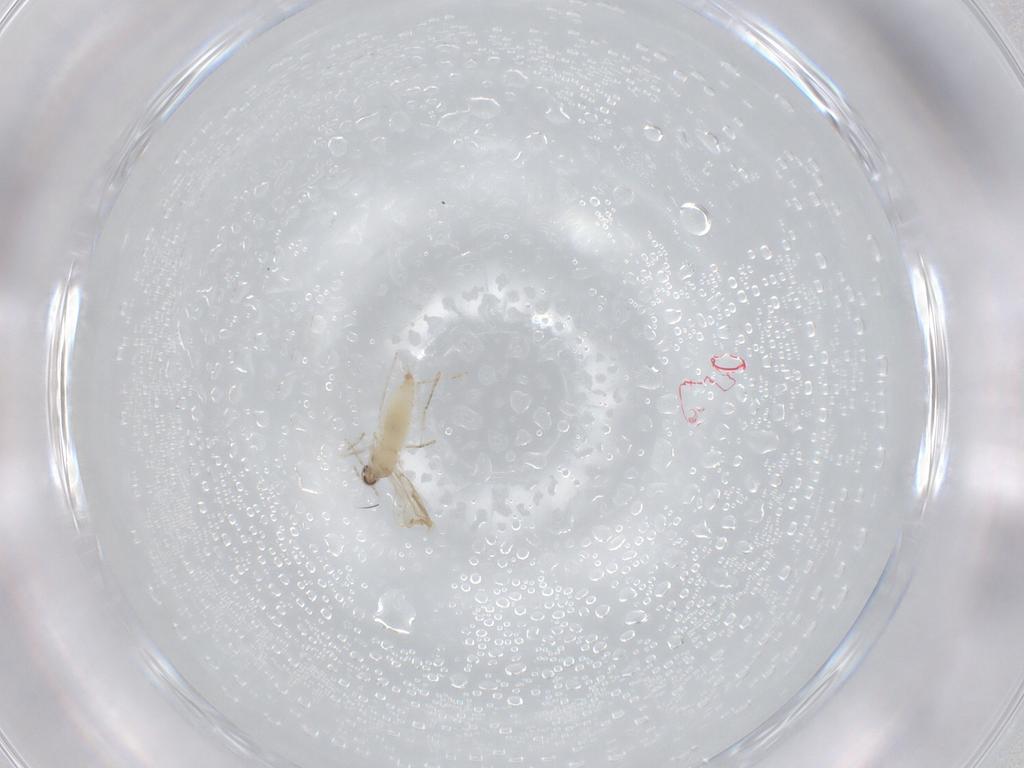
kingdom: Animalia
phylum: Arthropoda
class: Insecta
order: Diptera
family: Cecidomyiidae
